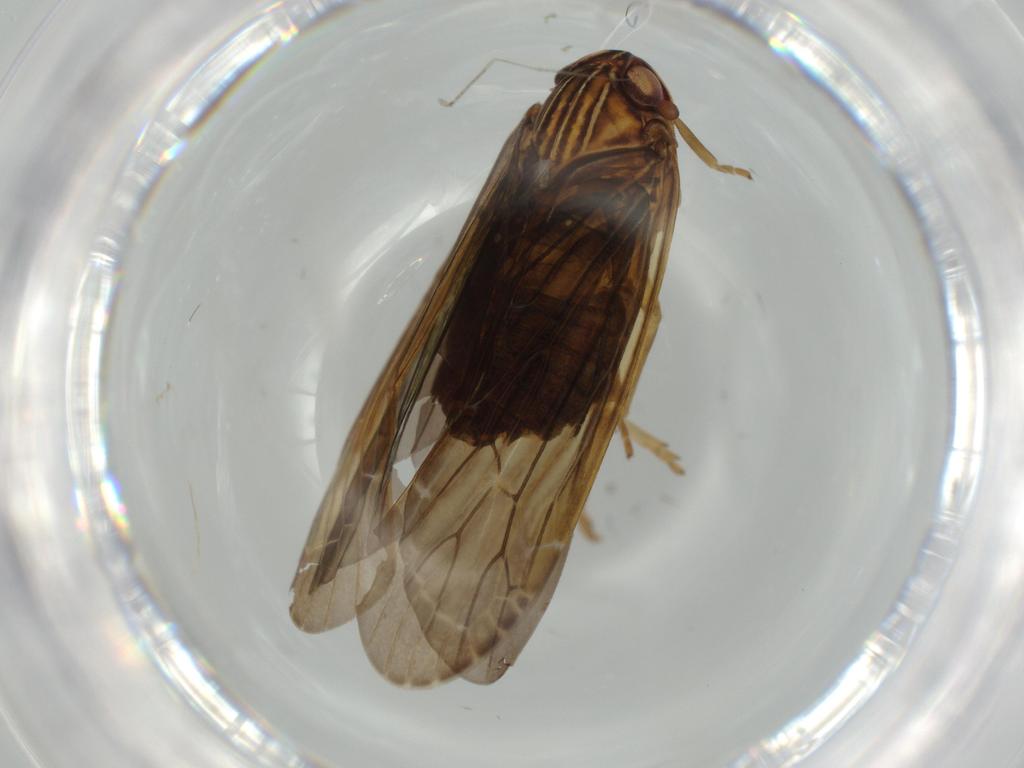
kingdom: Animalia
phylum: Arthropoda
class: Insecta
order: Hemiptera
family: Achilidae
